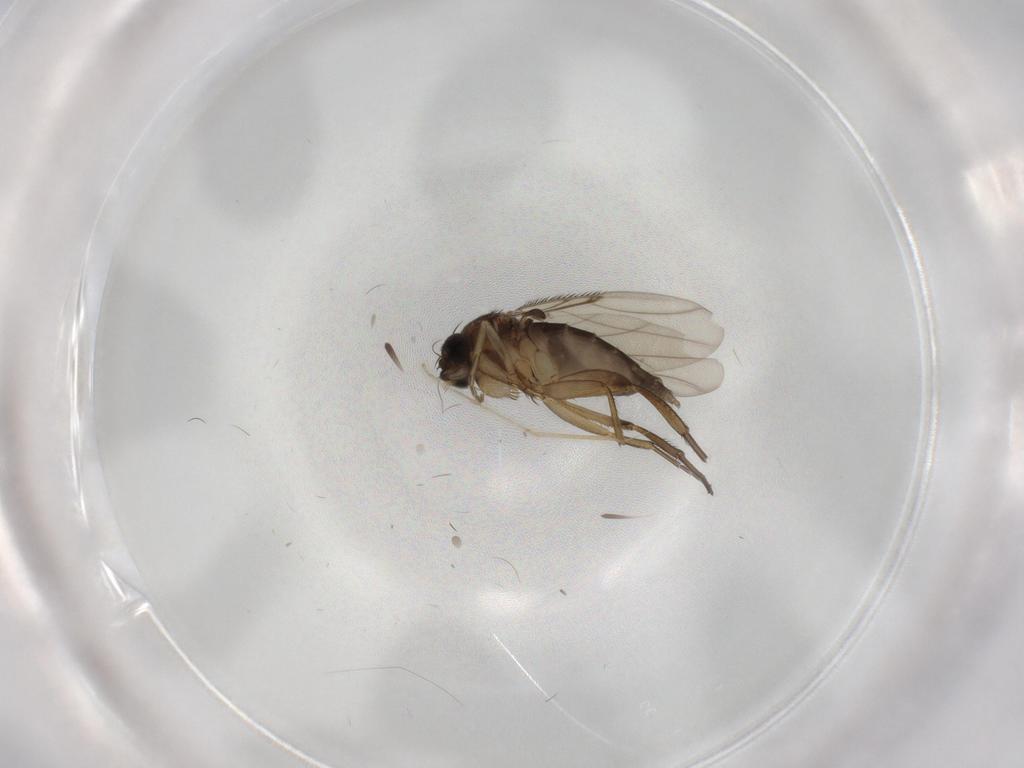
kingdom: Animalia
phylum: Arthropoda
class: Insecta
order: Diptera
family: Phoridae
